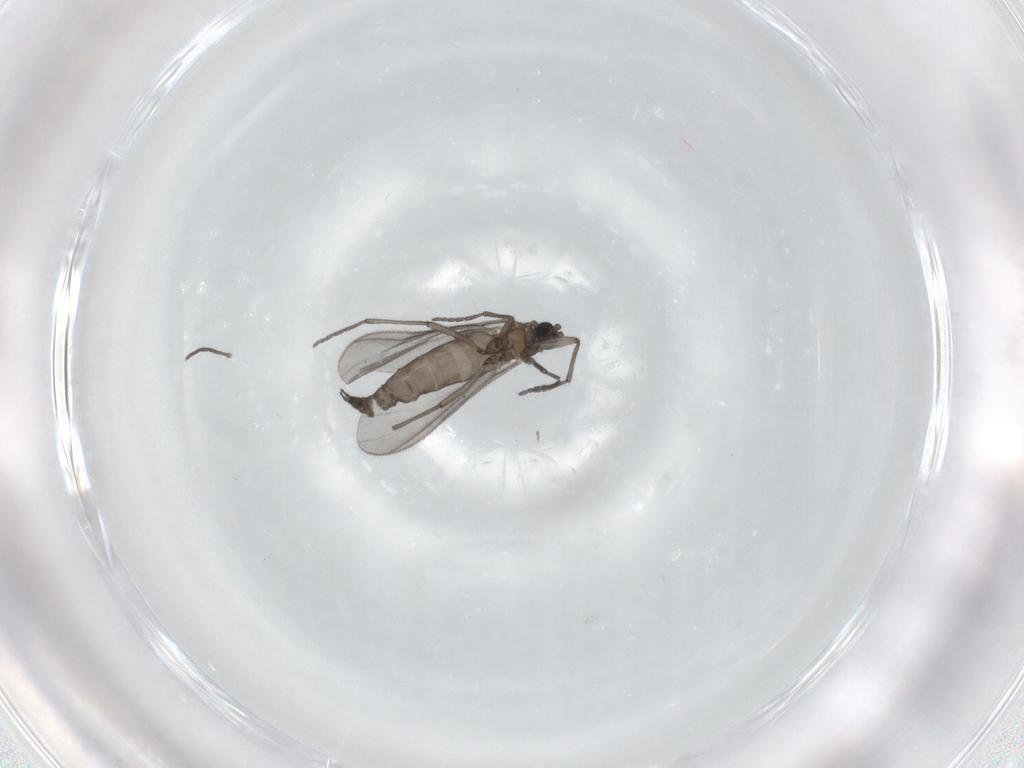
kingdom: Animalia
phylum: Arthropoda
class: Insecta
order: Diptera
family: Sciaridae
